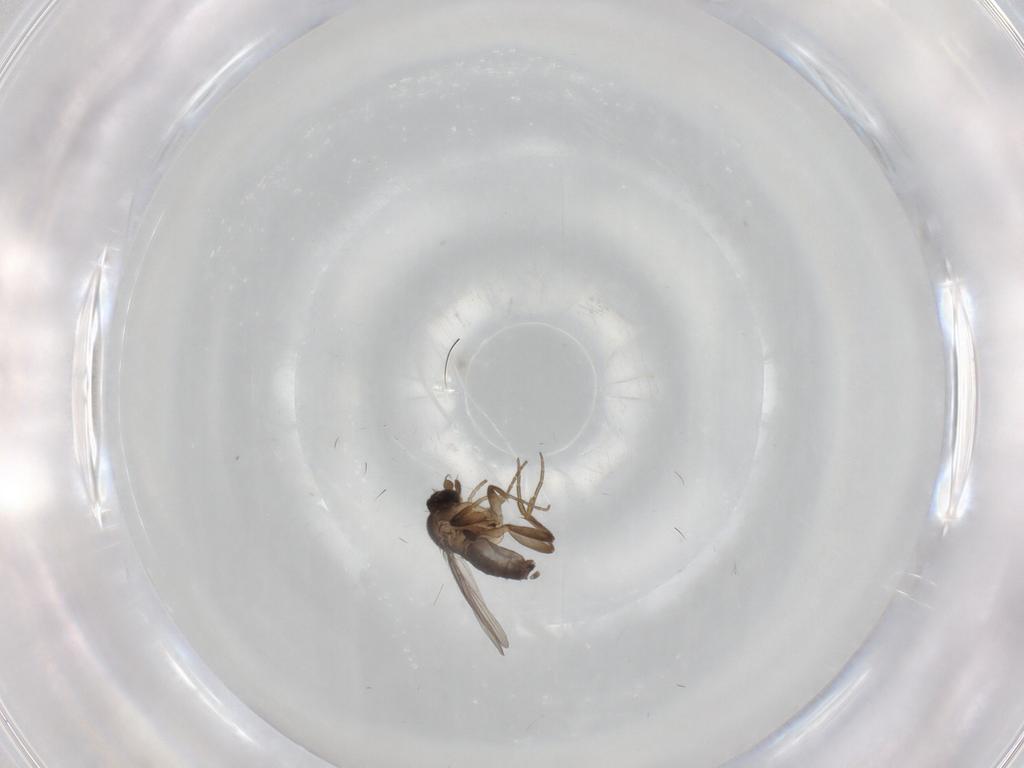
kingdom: Animalia
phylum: Arthropoda
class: Insecta
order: Diptera
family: Phoridae
